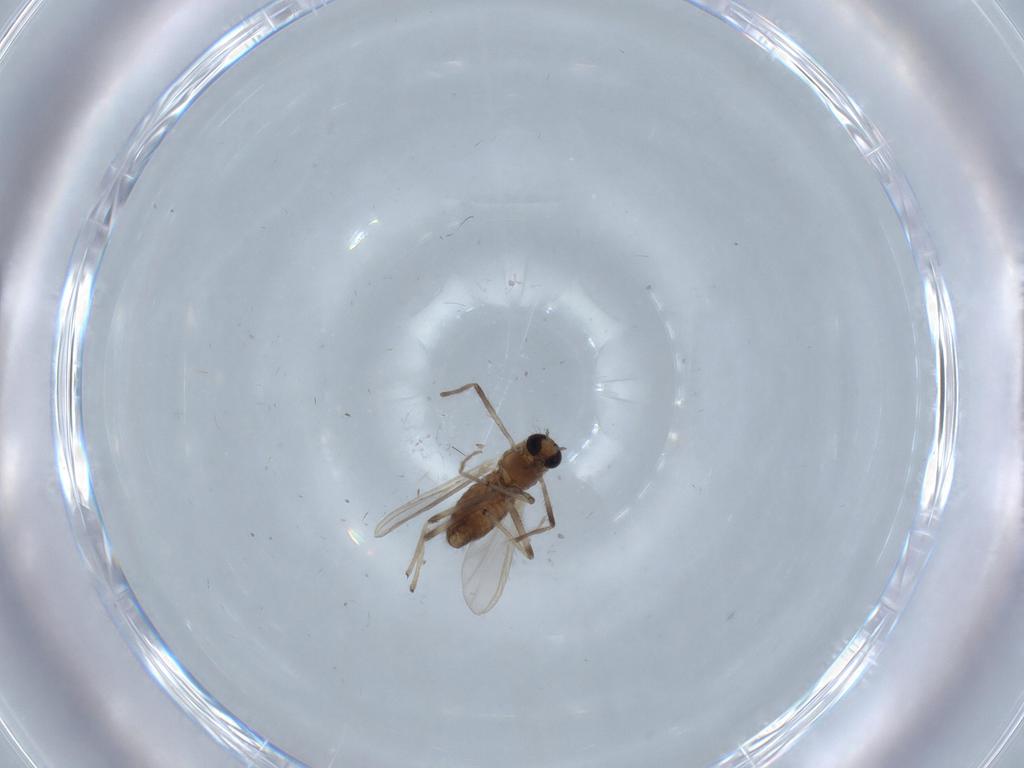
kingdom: Animalia
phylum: Arthropoda
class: Insecta
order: Diptera
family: Chironomidae
